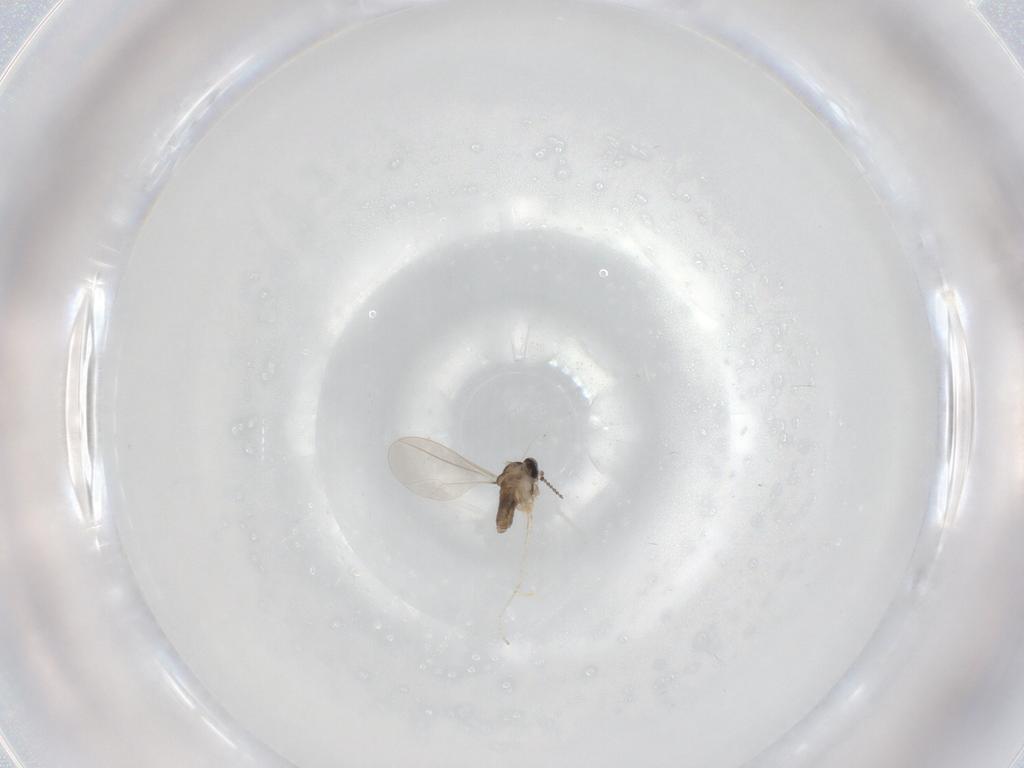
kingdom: Animalia
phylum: Arthropoda
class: Insecta
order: Diptera
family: Cecidomyiidae
